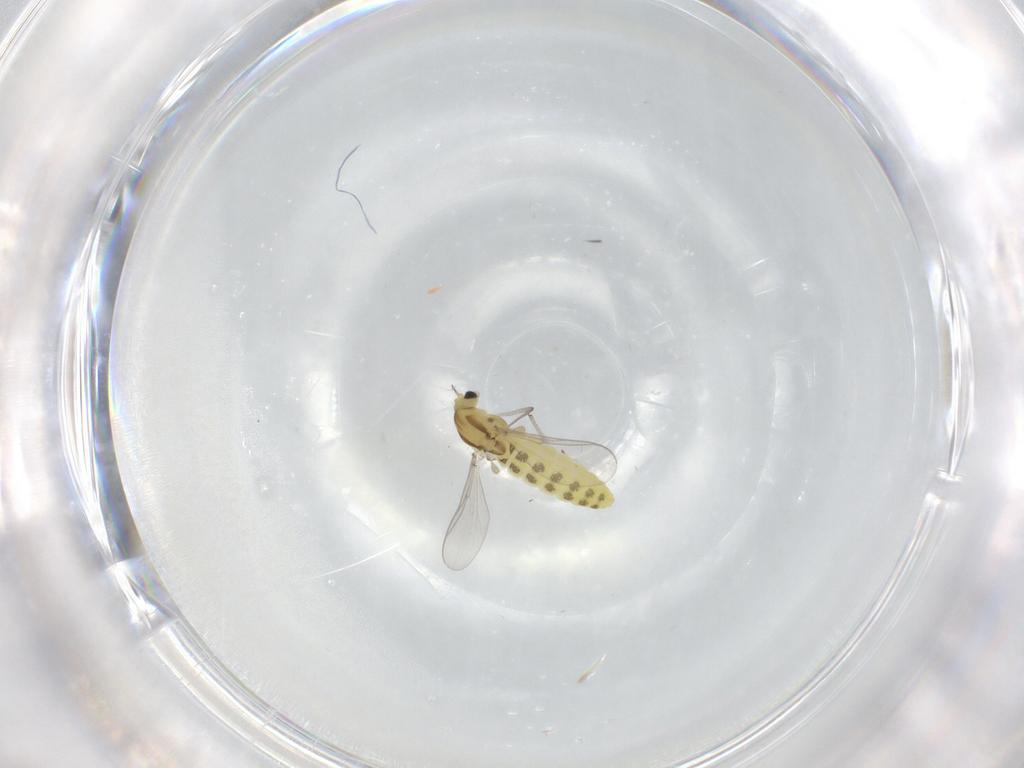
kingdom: Animalia
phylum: Arthropoda
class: Insecta
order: Diptera
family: Chironomidae
